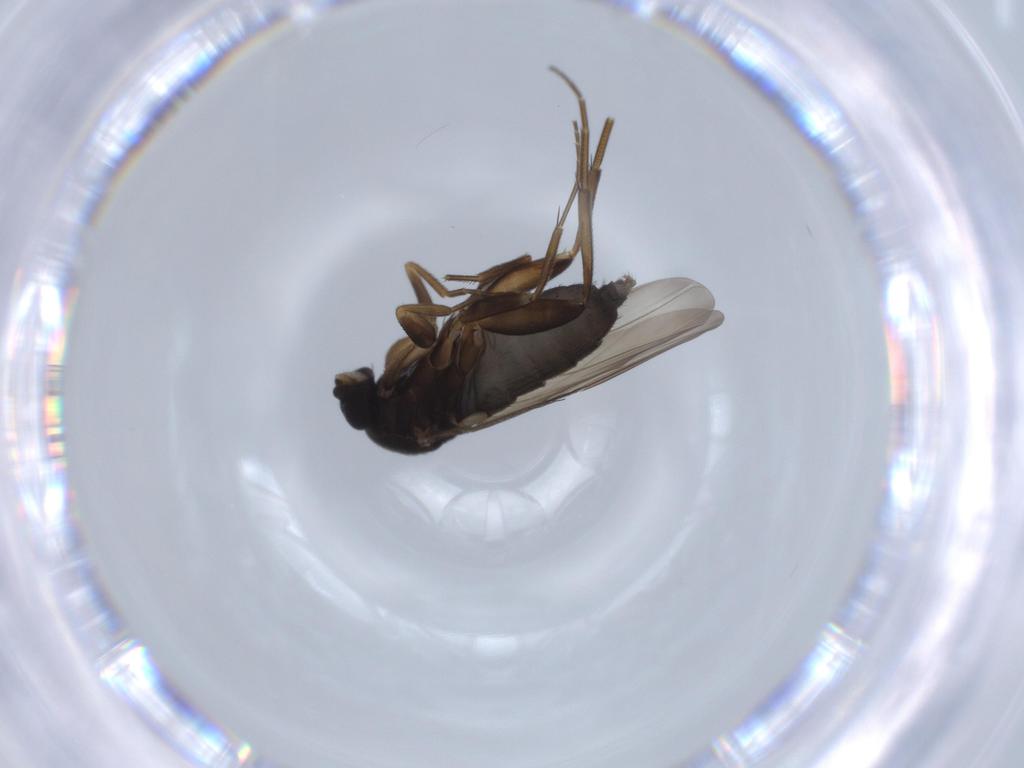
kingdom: Animalia
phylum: Arthropoda
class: Insecta
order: Diptera
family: Phoridae
